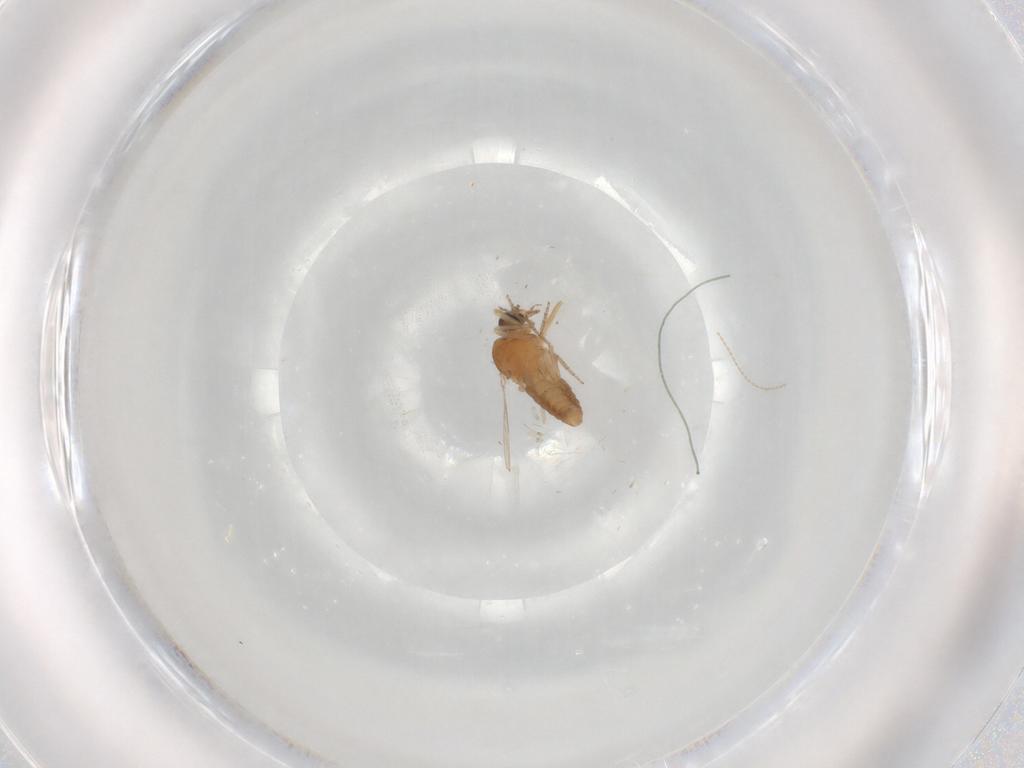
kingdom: Animalia
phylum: Arthropoda
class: Insecta
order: Diptera
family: Ceratopogonidae
